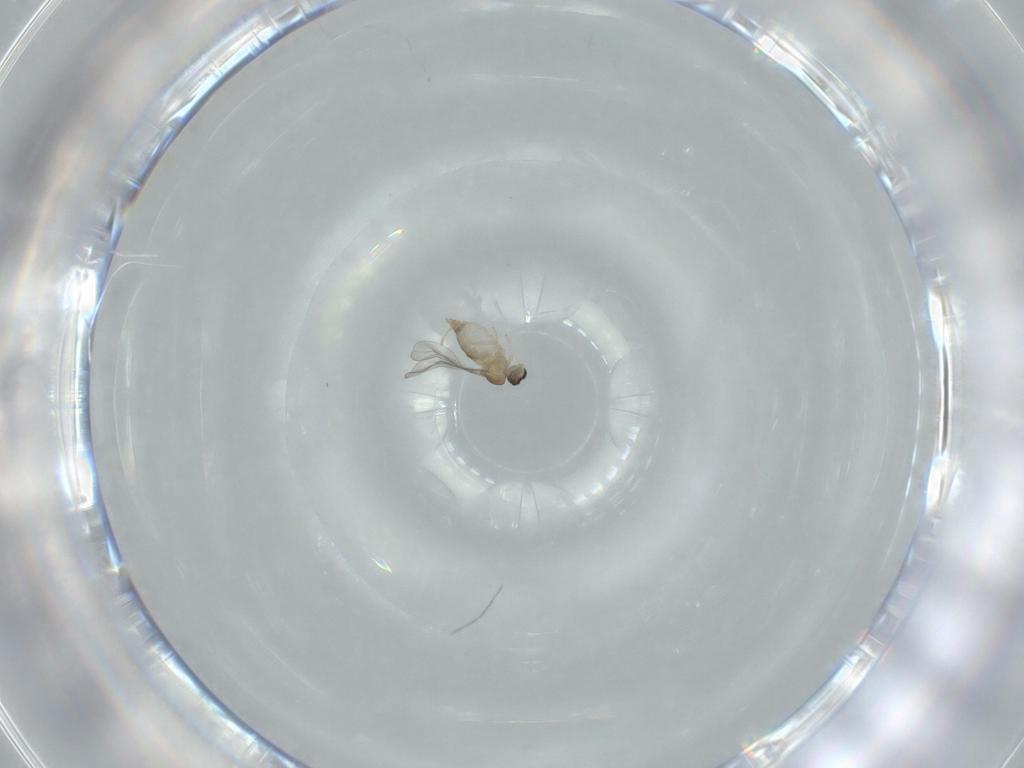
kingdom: Animalia
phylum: Arthropoda
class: Insecta
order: Diptera
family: Cecidomyiidae
